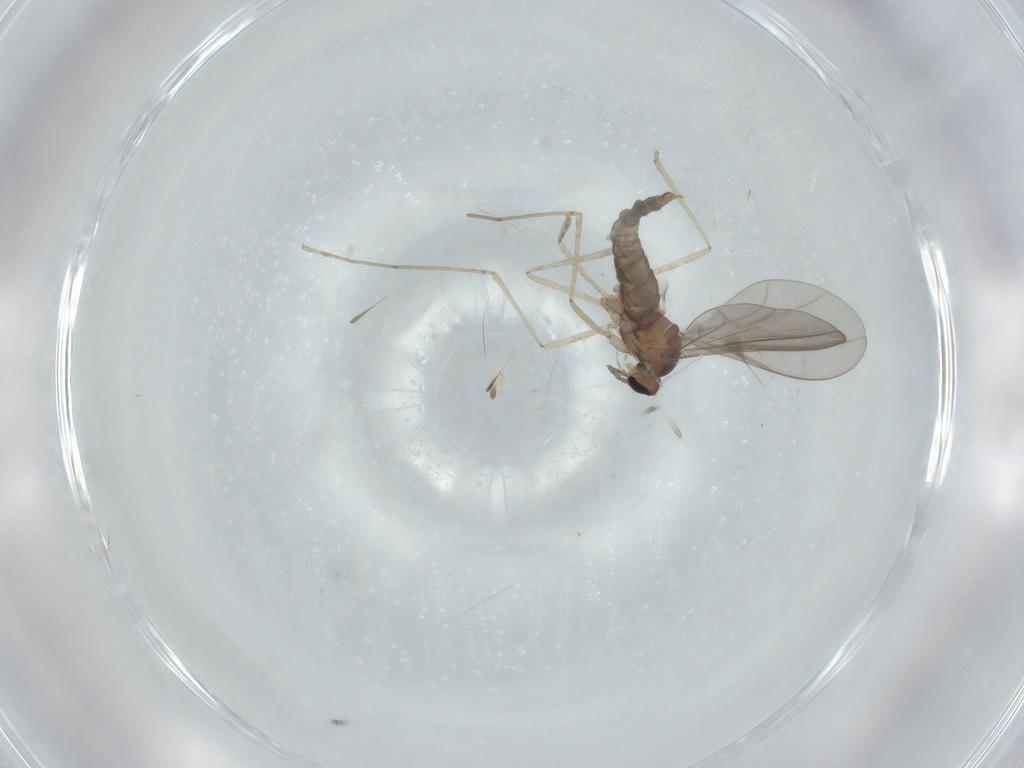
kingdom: Animalia
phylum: Arthropoda
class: Insecta
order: Diptera
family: Cecidomyiidae
